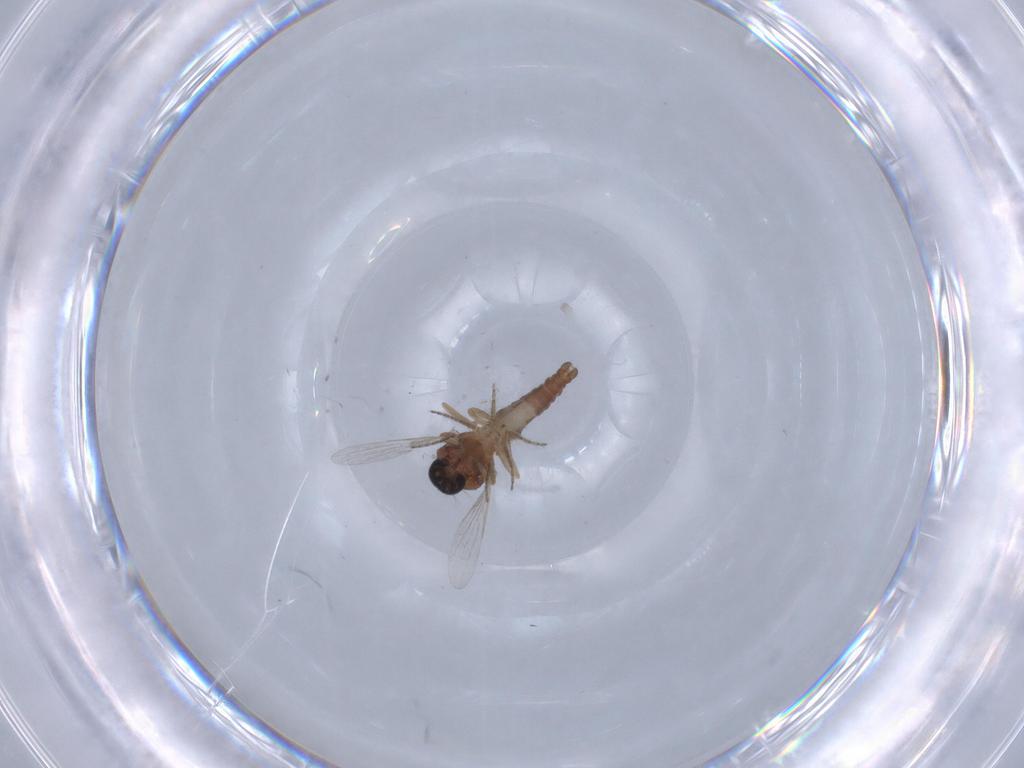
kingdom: Animalia
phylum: Arthropoda
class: Insecta
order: Diptera
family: Ceratopogonidae
